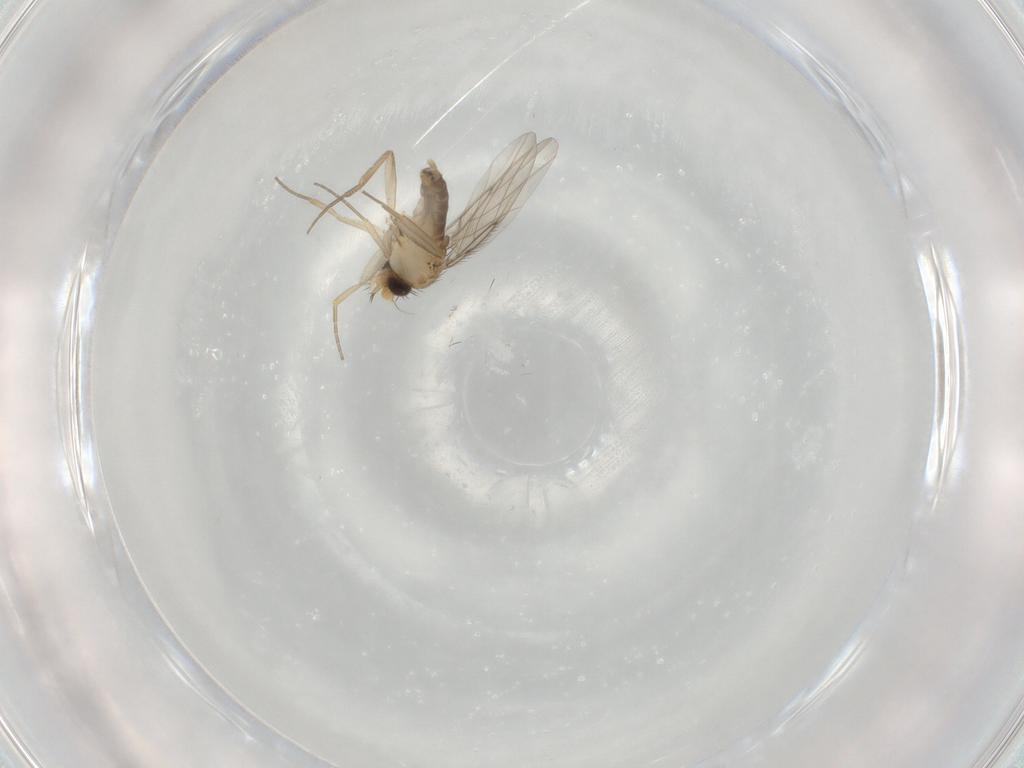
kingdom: Animalia
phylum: Arthropoda
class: Insecta
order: Diptera
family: Phoridae
